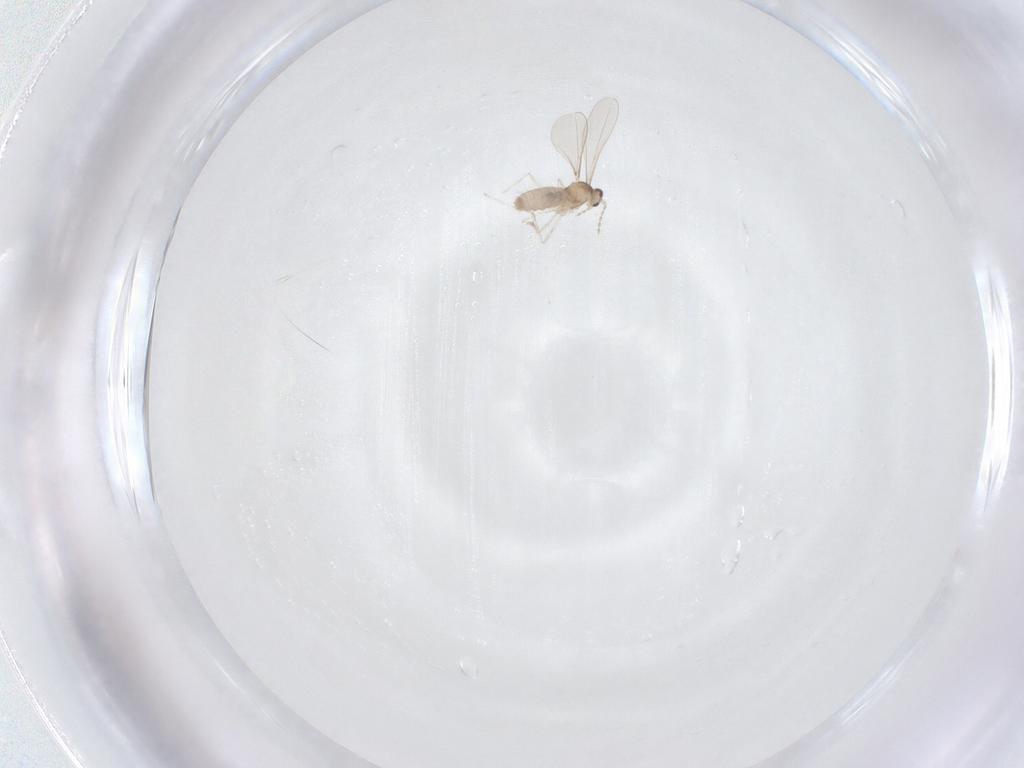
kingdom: Animalia
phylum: Arthropoda
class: Insecta
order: Diptera
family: Cecidomyiidae
